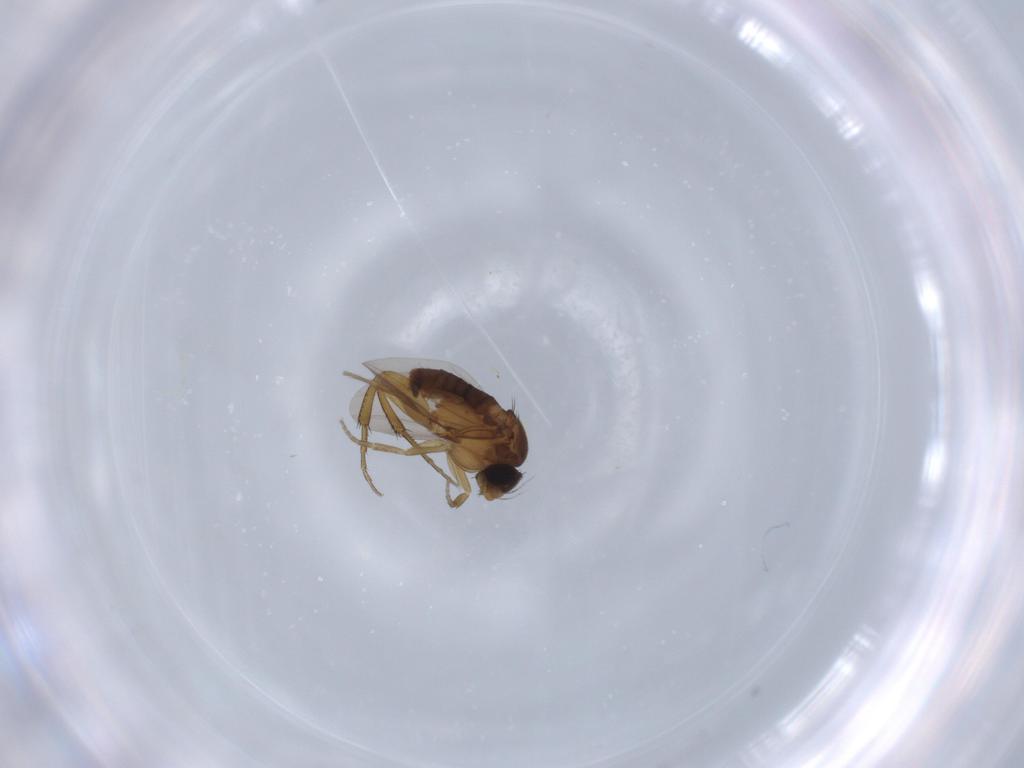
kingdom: Animalia
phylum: Arthropoda
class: Insecta
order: Diptera
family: Phoridae
